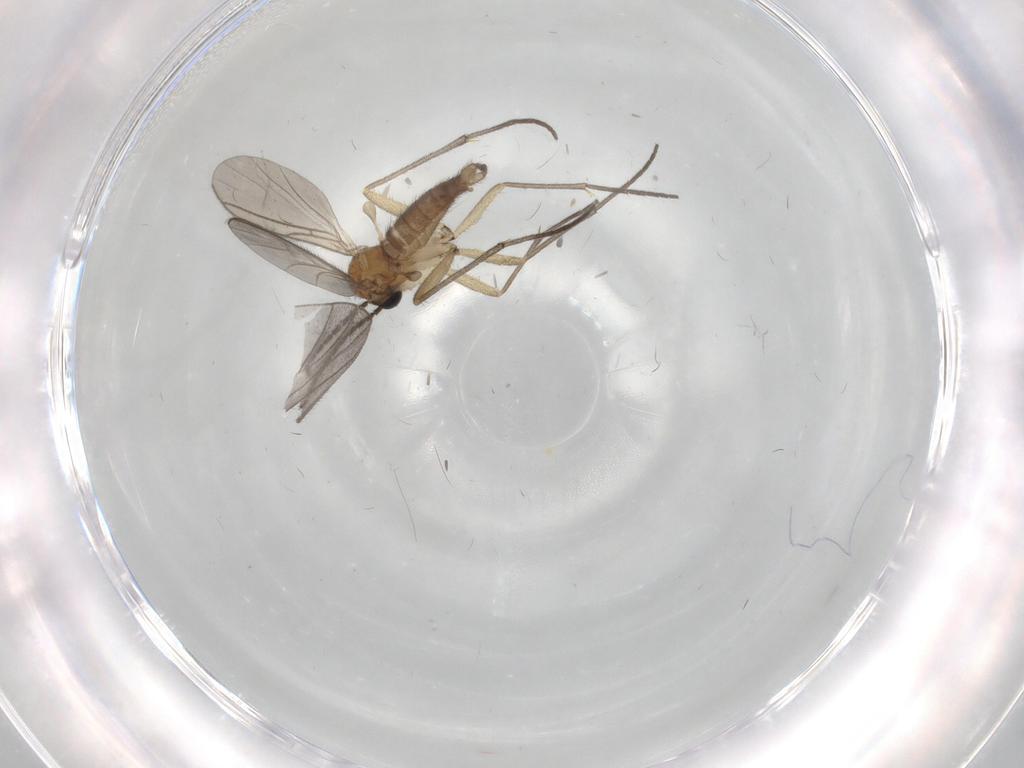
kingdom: Animalia
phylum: Arthropoda
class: Insecta
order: Diptera
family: Sciaridae
